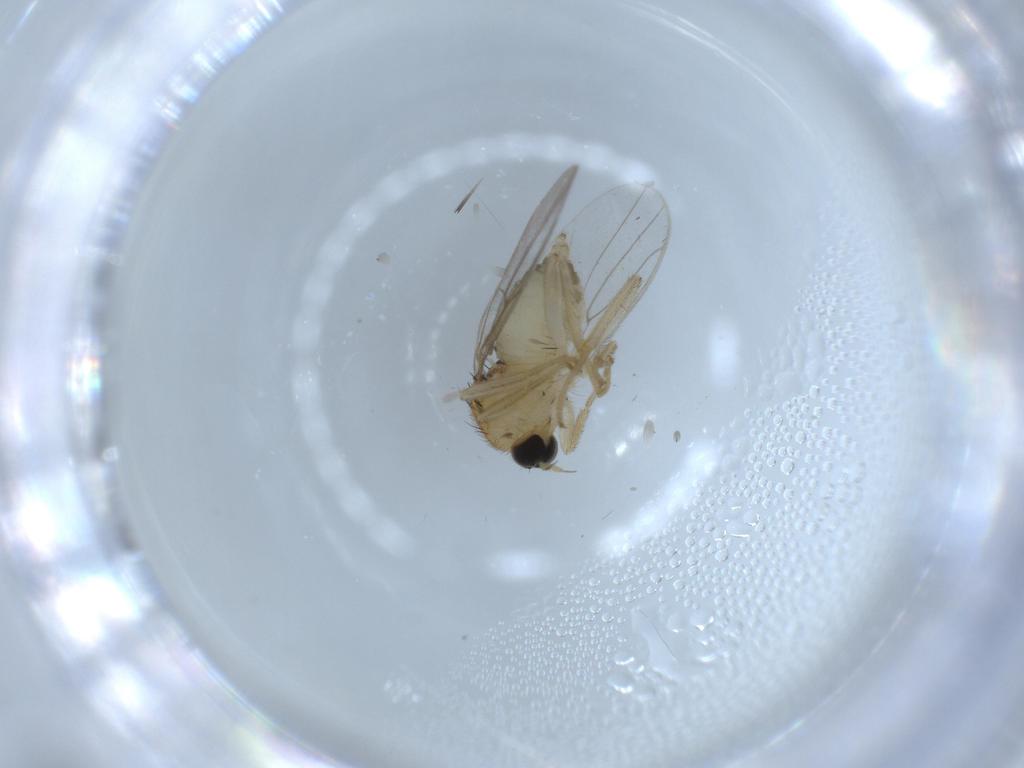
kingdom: Animalia
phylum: Arthropoda
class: Insecta
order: Diptera
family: Hybotidae
